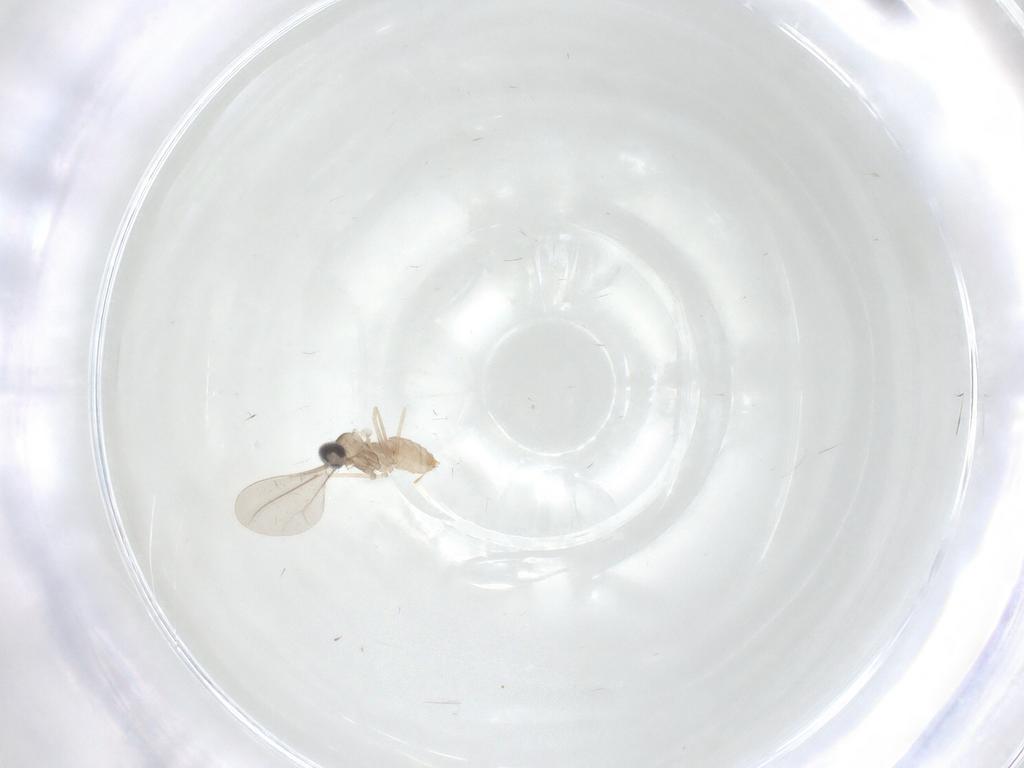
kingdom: Animalia
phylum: Arthropoda
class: Insecta
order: Diptera
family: Cecidomyiidae
